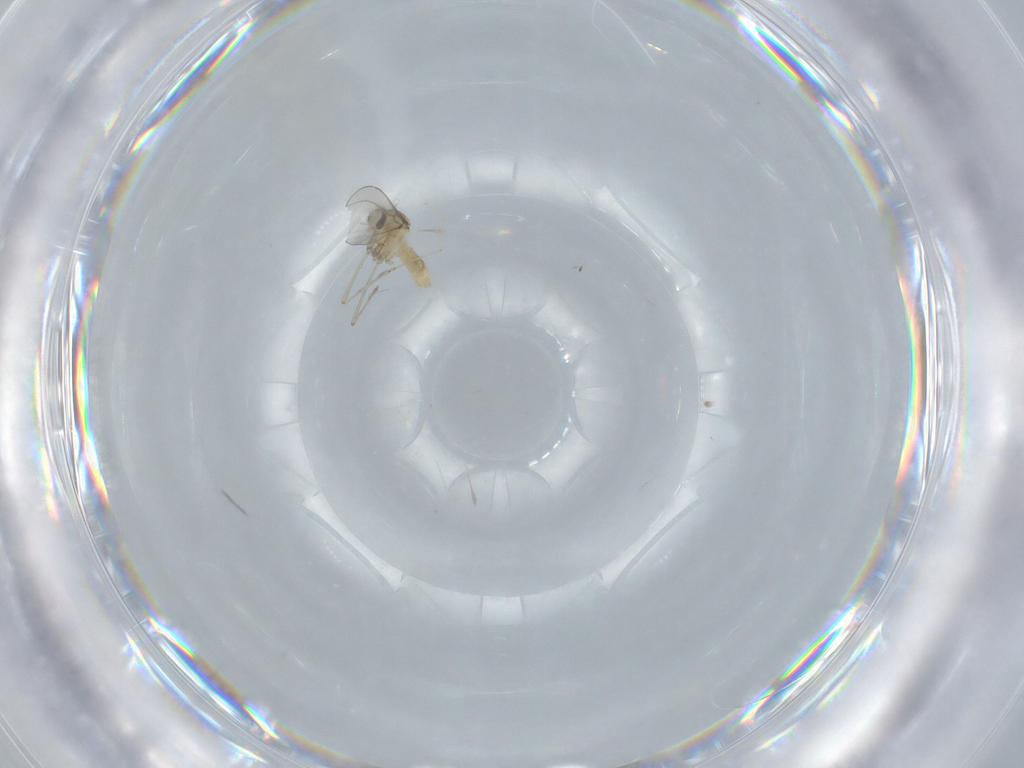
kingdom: Animalia
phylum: Arthropoda
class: Insecta
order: Diptera
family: Cecidomyiidae
